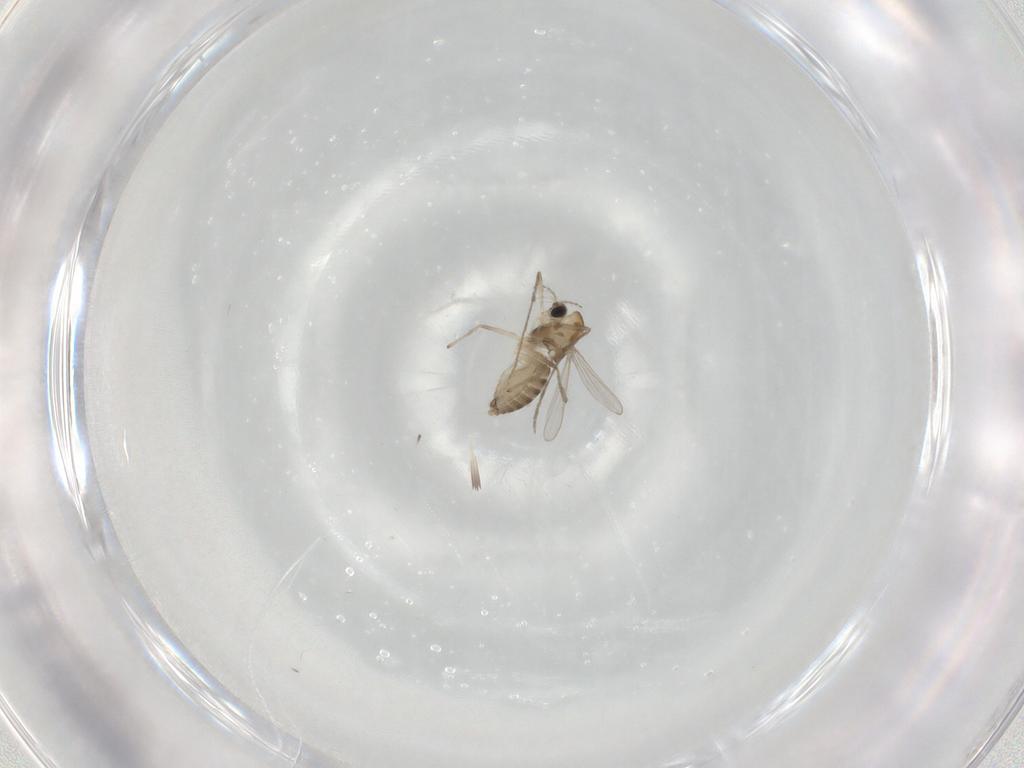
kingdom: Animalia
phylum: Arthropoda
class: Insecta
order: Diptera
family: Chironomidae
